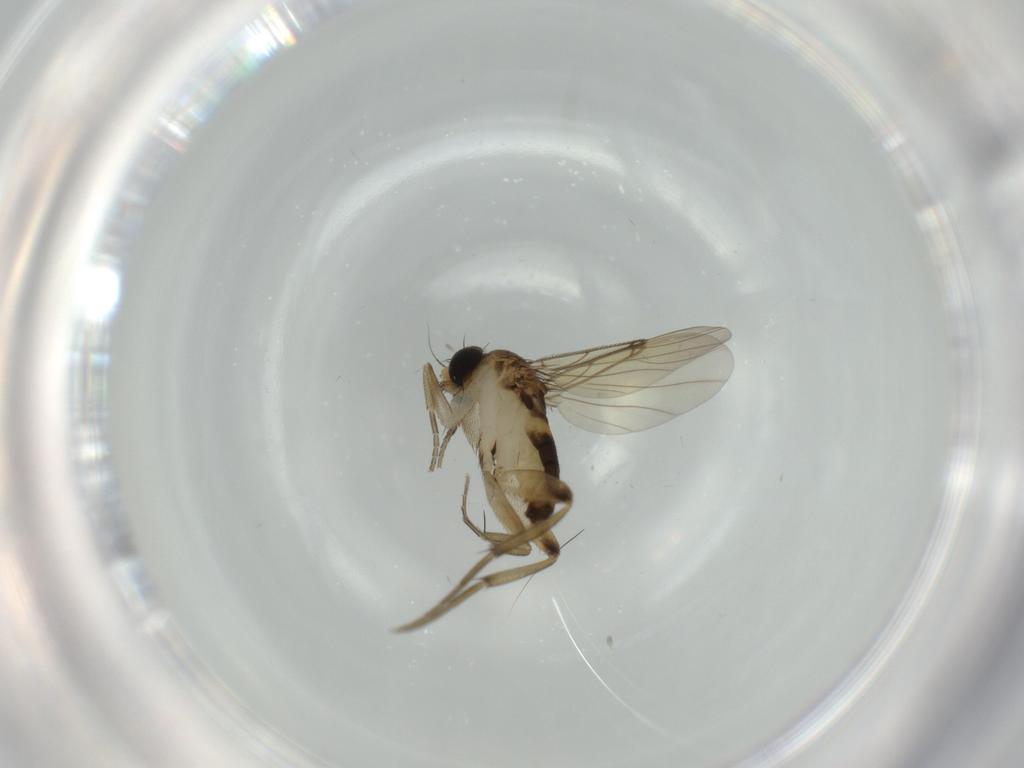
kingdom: Animalia
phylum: Arthropoda
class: Insecta
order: Diptera
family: Phoridae
